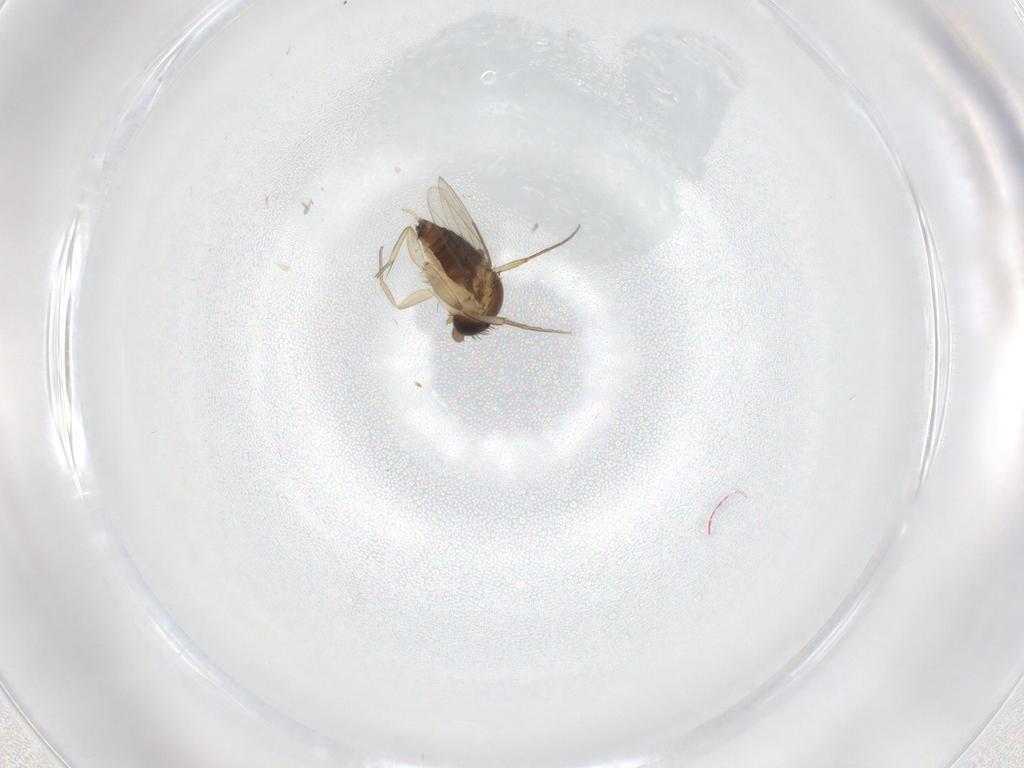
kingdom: Animalia
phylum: Arthropoda
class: Insecta
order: Diptera
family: Phoridae
